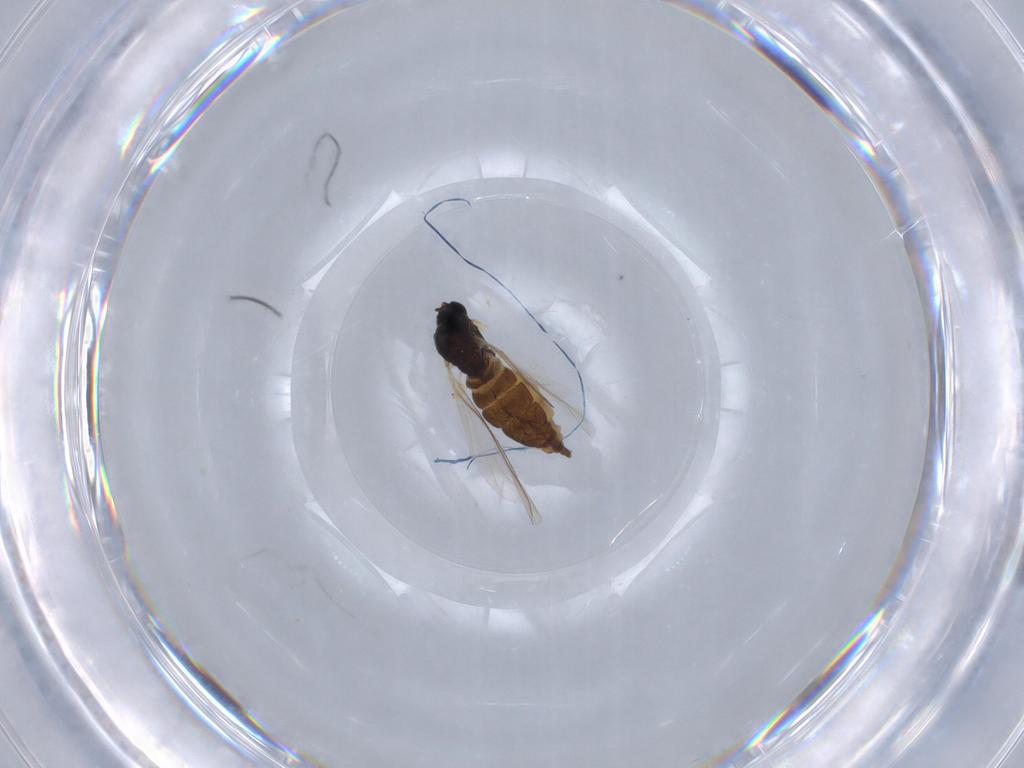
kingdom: Animalia
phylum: Arthropoda
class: Insecta
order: Diptera
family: Sciaridae
